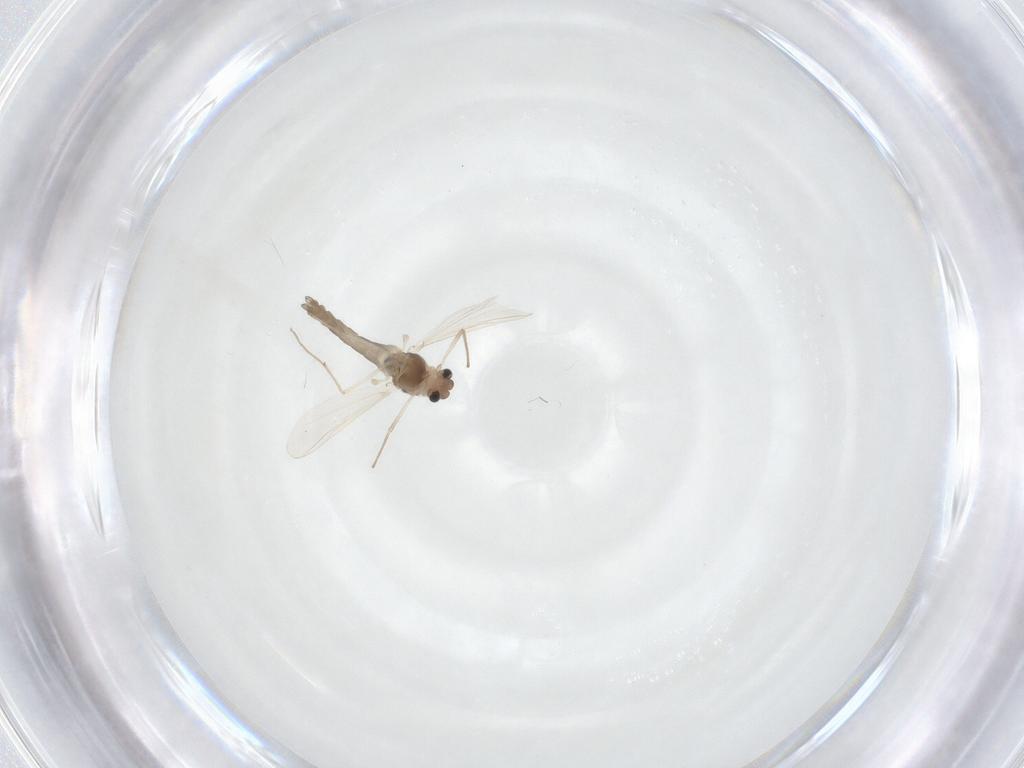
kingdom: Animalia
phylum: Arthropoda
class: Insecta
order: Diptera
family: Chironomidae
